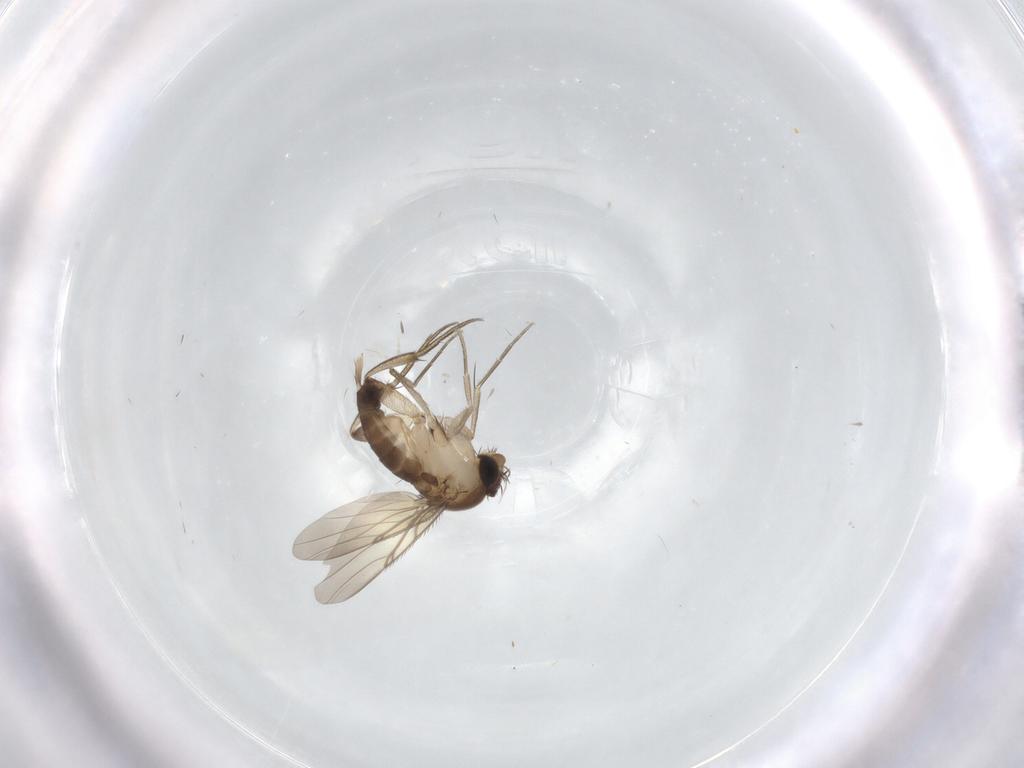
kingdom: Animalia
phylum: Arthropoda
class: Insecta
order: Diptera
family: Phoridae
